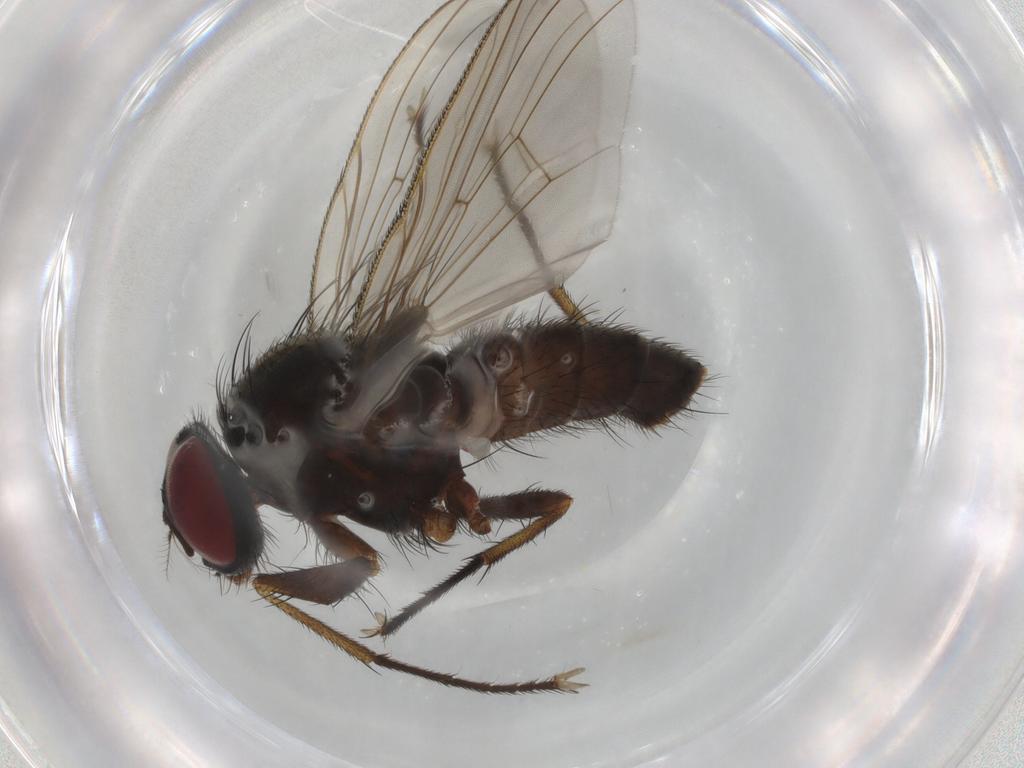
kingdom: Animalia
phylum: Arthropoda
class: Insecta
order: Diptera
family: Muscidae
